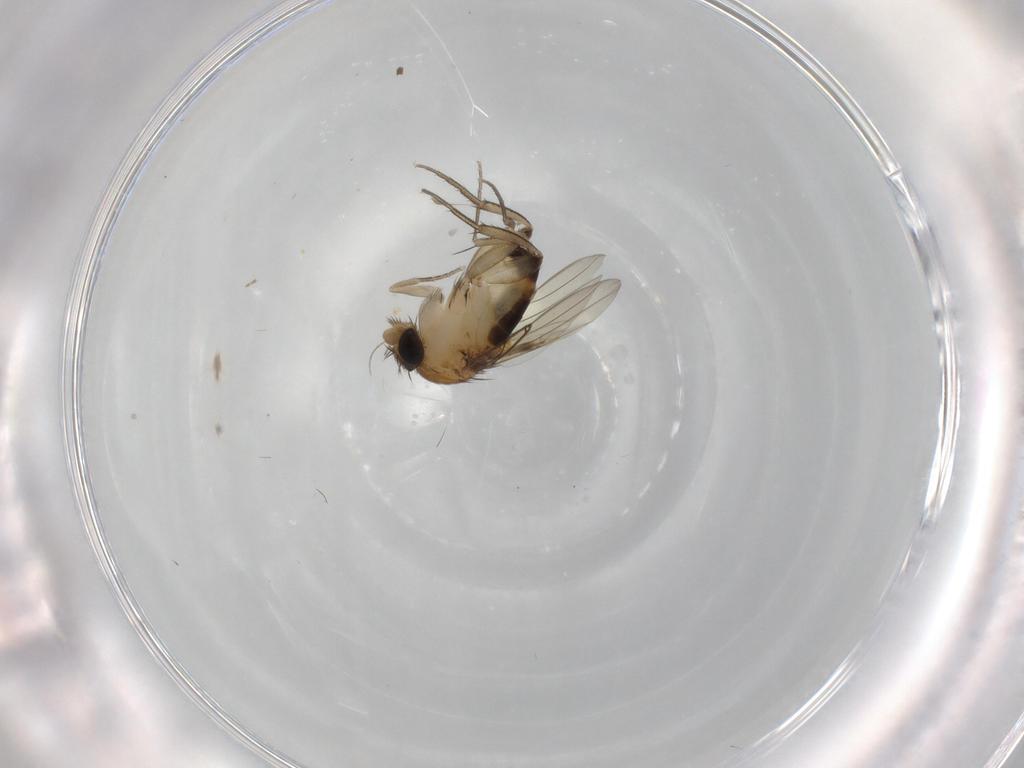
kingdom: Animalia
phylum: Arthropoda
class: Insecta
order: Diptera
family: Phoridae
